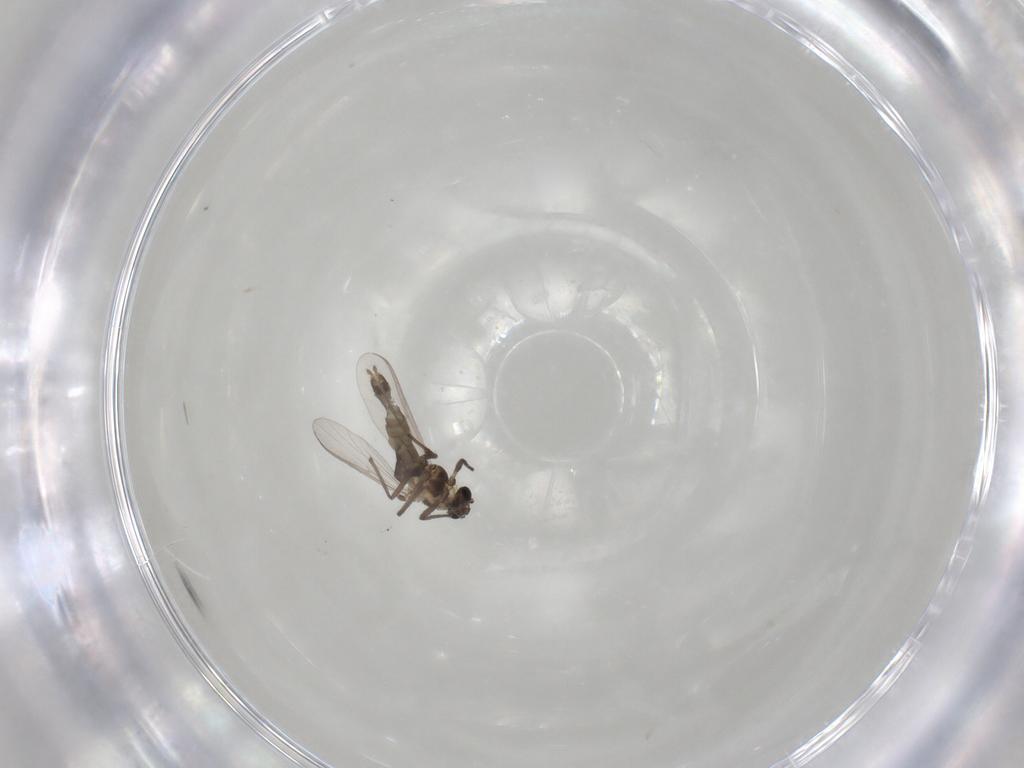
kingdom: Animalia
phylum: Arthropoda
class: Insecta
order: Diptera
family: Chironomidae
